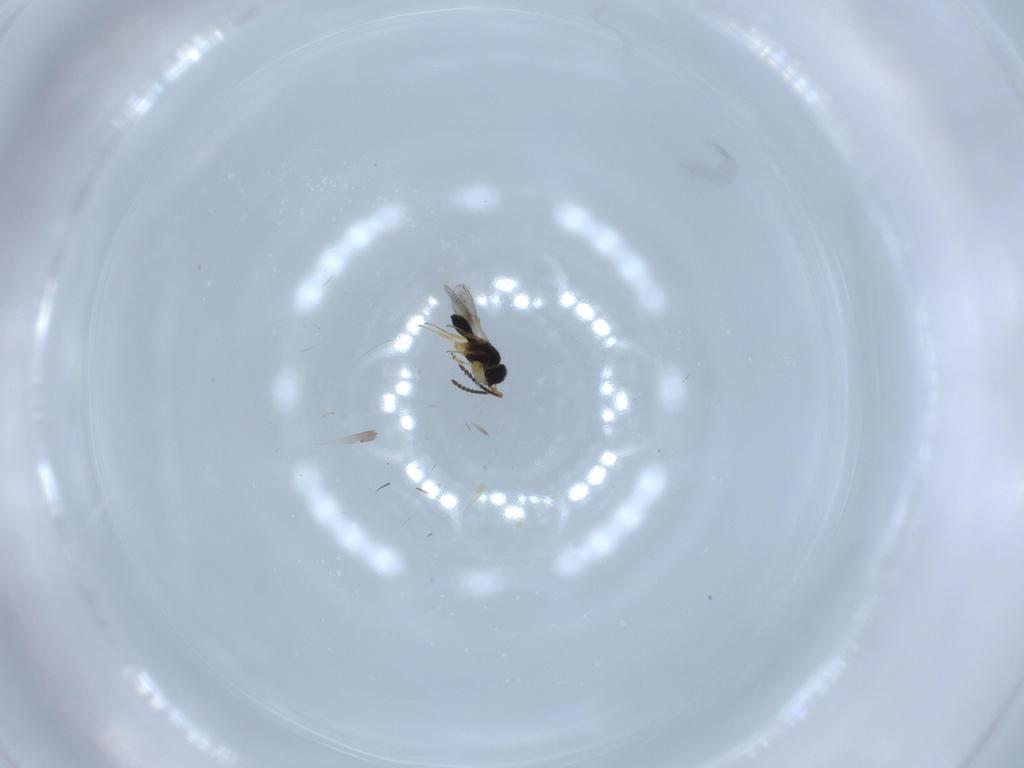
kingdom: Animalia
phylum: Arthropoda
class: Insecta
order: Hymenoptera
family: Scelionidae
